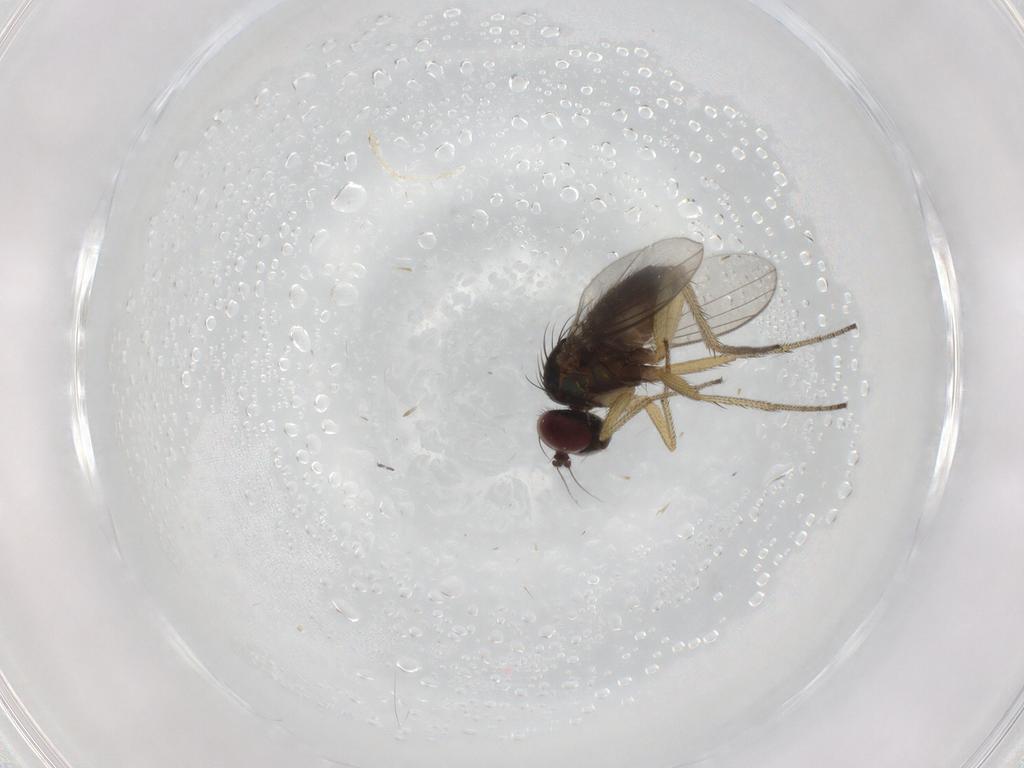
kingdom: Animalia
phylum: Arthropoda
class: Insecta
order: Diptera
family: Dolichopodidae
